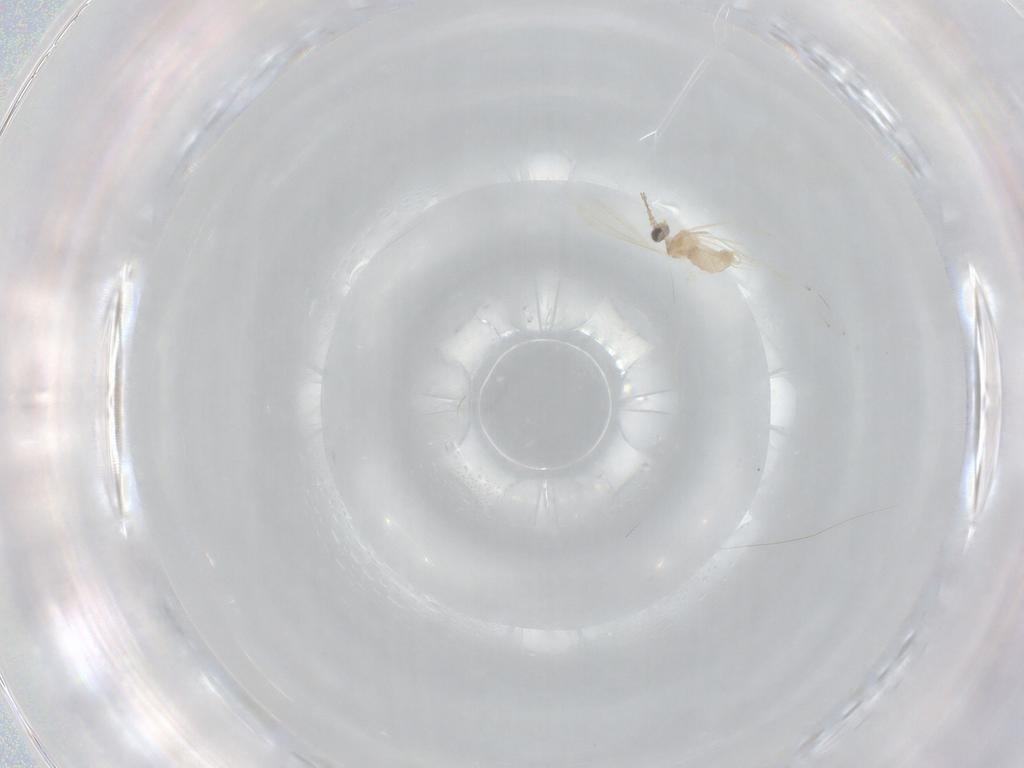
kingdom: Animalia
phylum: Arthropoda
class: Insecta
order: Diptera
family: Cecidomyiidae
